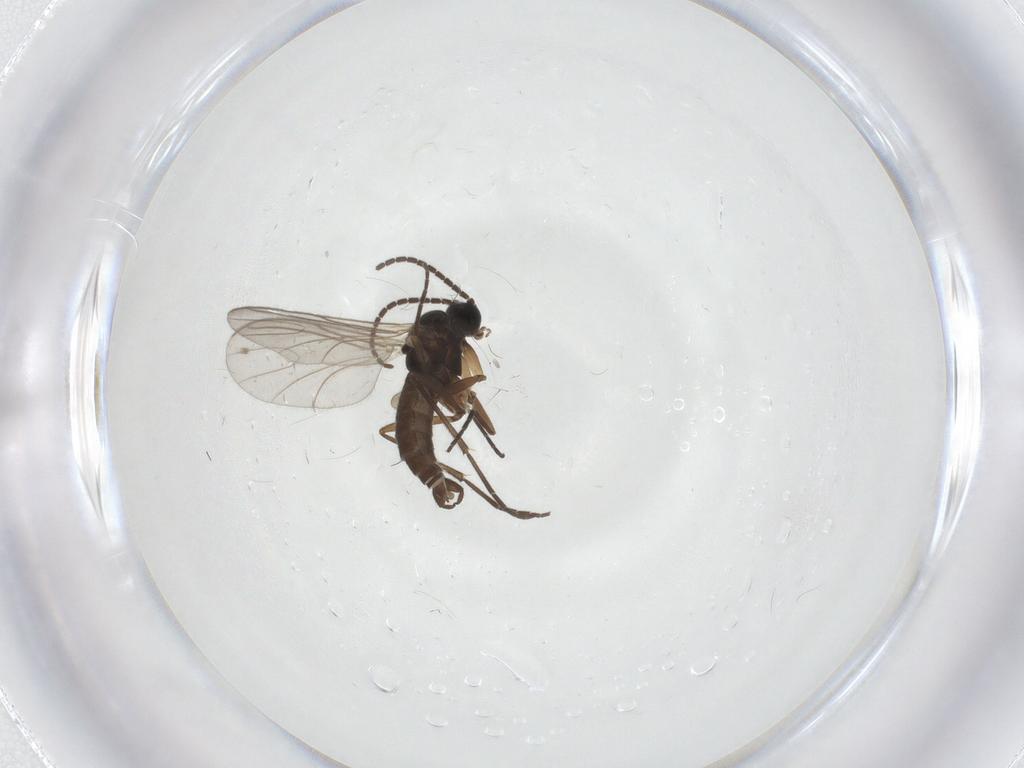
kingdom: Animalia
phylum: Arthropoda
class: Insecta
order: Diptera
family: Sciaridae
